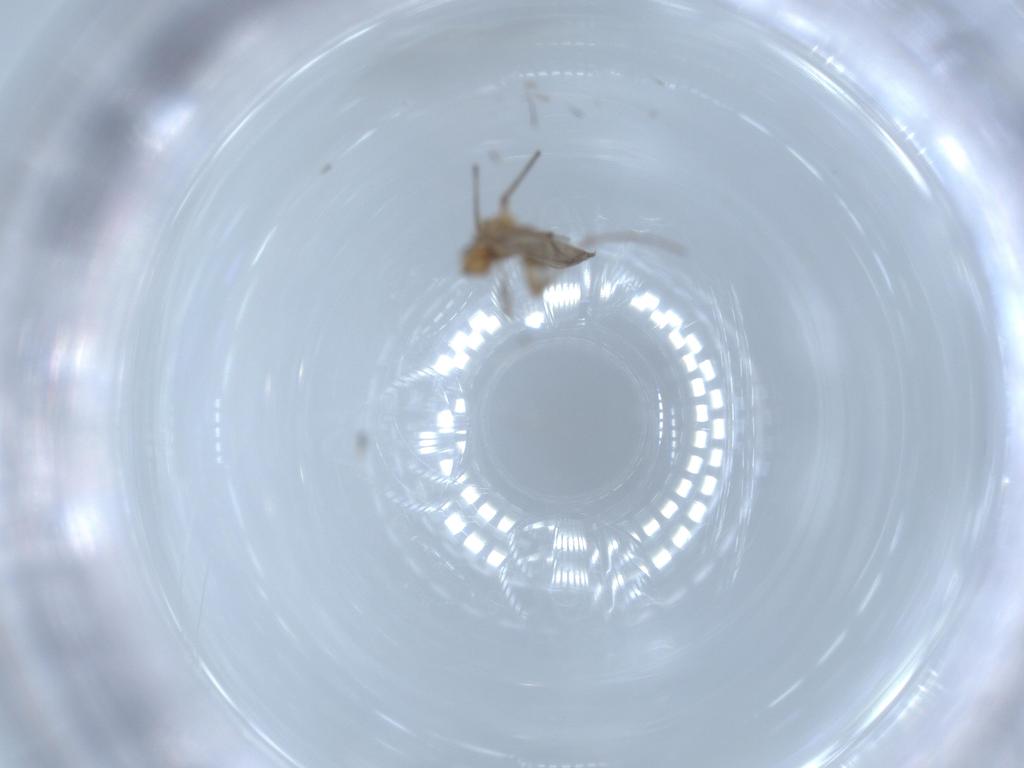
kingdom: Animalia
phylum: Arthropoda
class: Insecta
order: Diptera
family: Chironomidae
